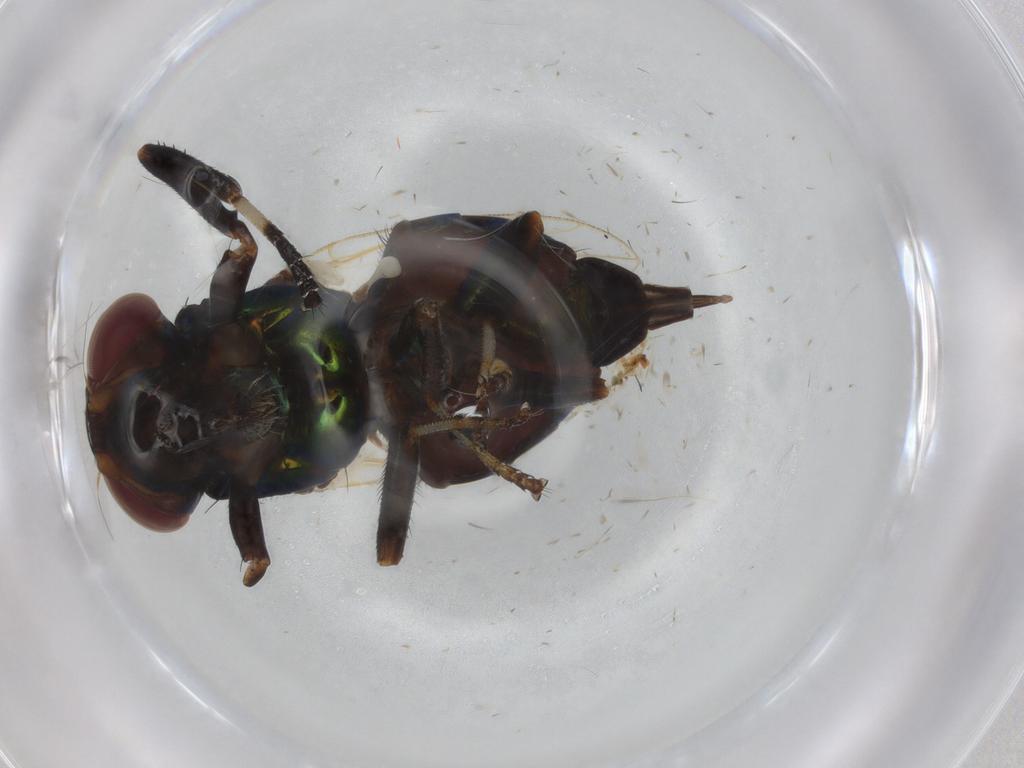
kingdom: Animalia
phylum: Arthropoda
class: Insecta
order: Diptera
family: Ulidiidae
